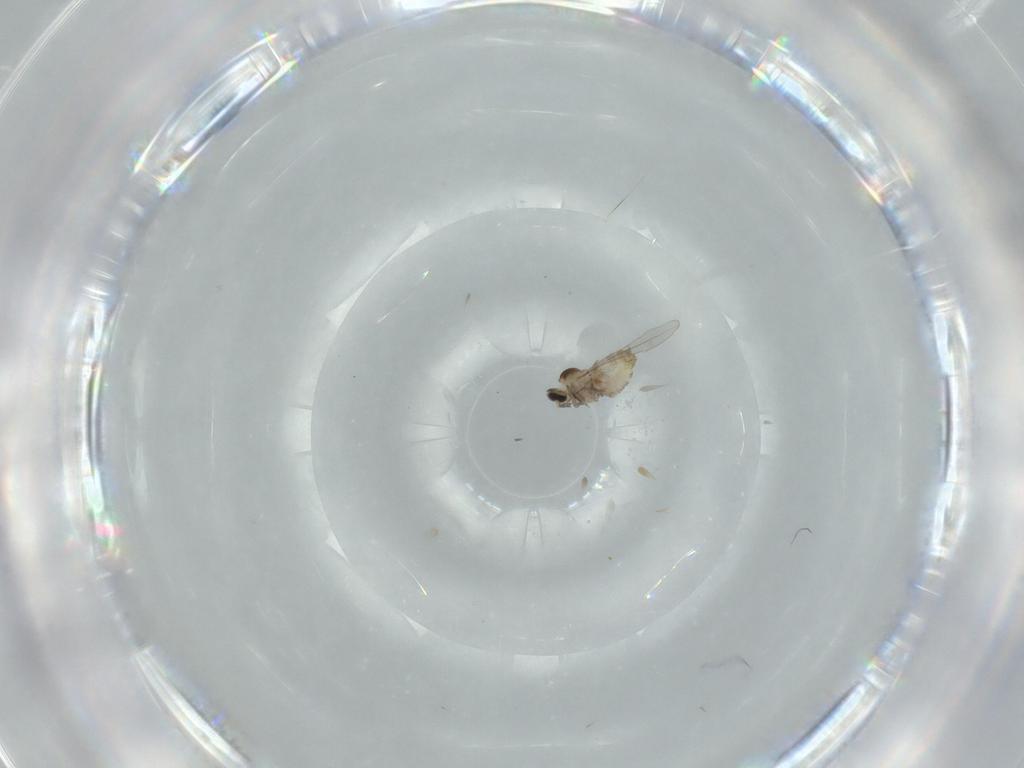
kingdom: Animalia
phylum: Arthropoda
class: Insecta
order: Diptera
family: Cecidomyiidae
